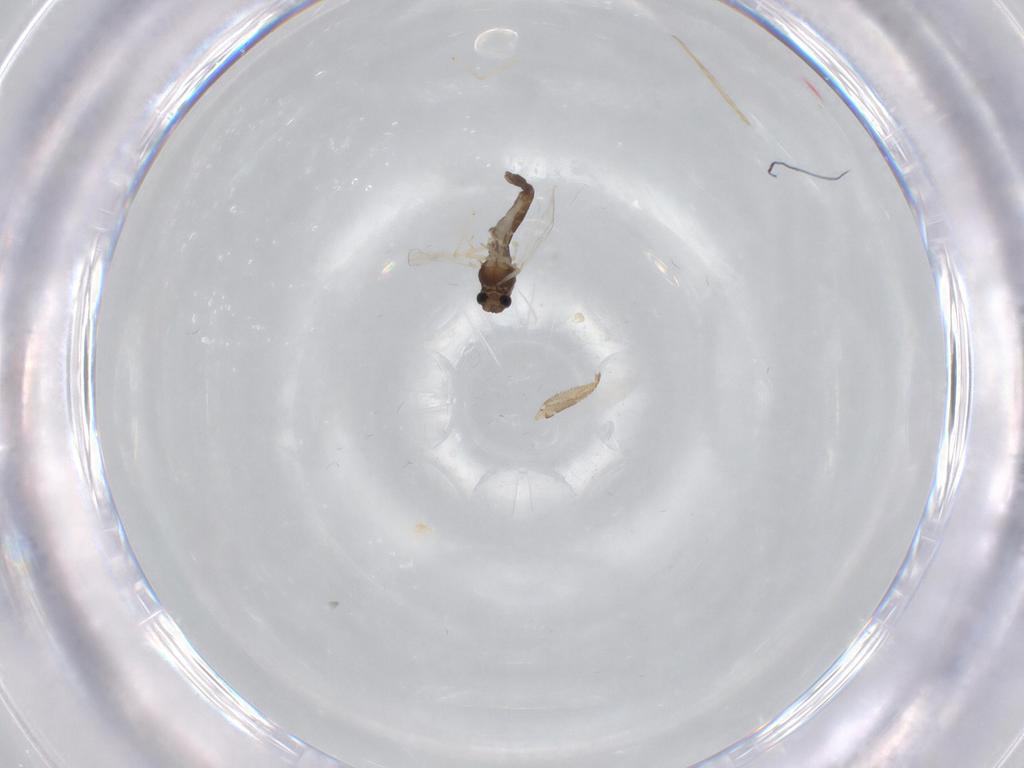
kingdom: Animalia
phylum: Arthropoda
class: Insecta
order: Diptera
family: Chironomidae
